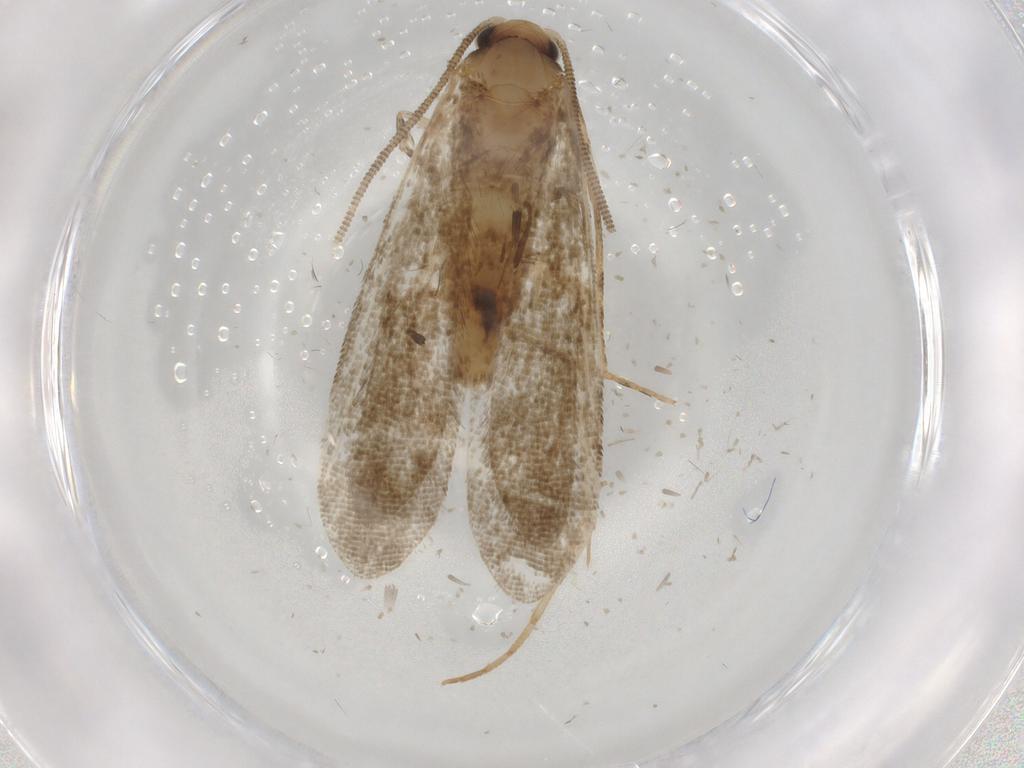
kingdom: Animalia
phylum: Arthropoda
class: Insecta
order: Lepidoptera
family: Tineidae
